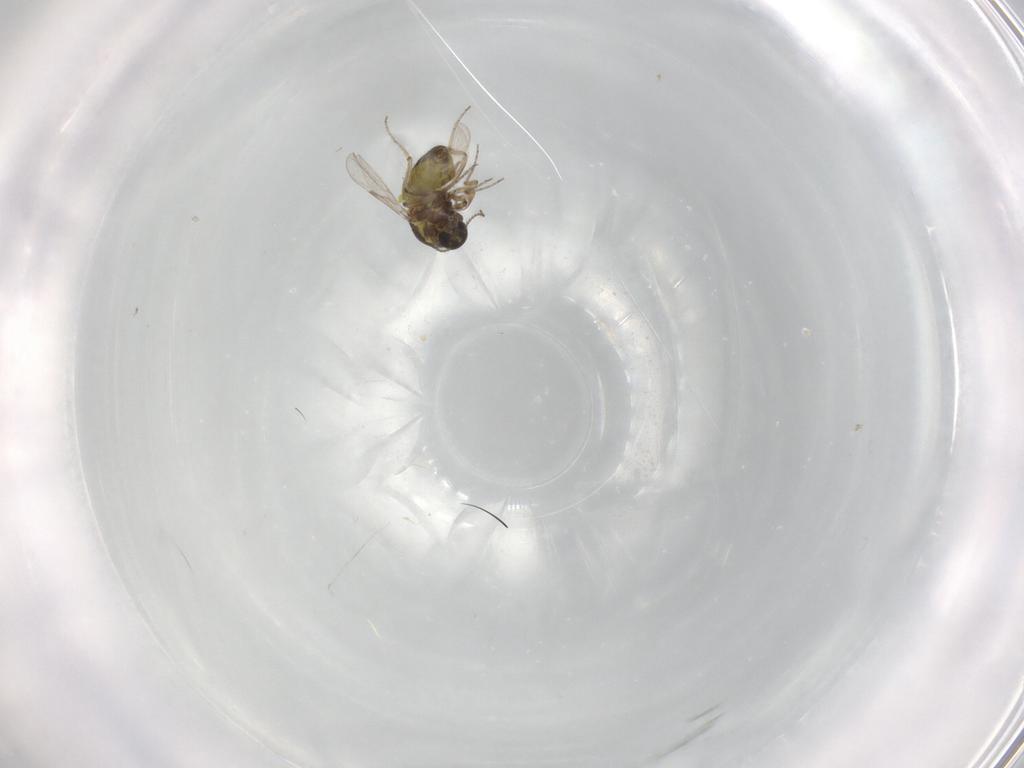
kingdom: Animalia
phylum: Arthropoda
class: Insecta
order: Diptera
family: Ceratopogonidae
